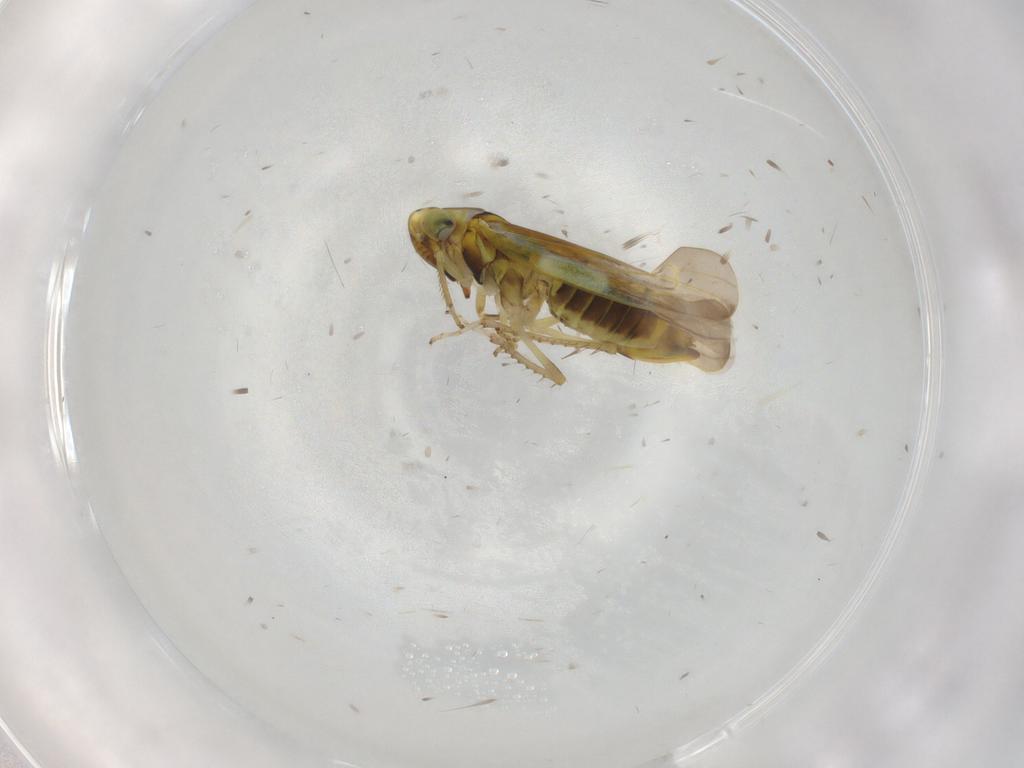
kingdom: Animalia
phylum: Arthropoda
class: Insecta
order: Hemiptera
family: Cicadellidae
